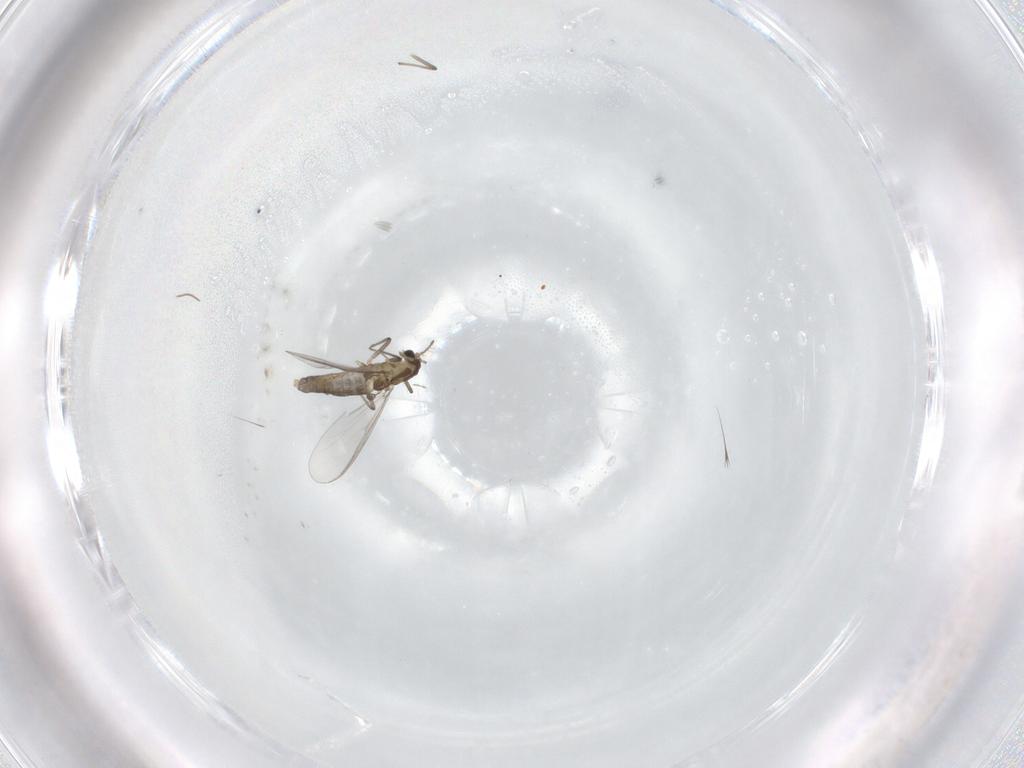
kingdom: Animalia
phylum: Arthropoda
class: Insecta
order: Diptera
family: Chironomidae
